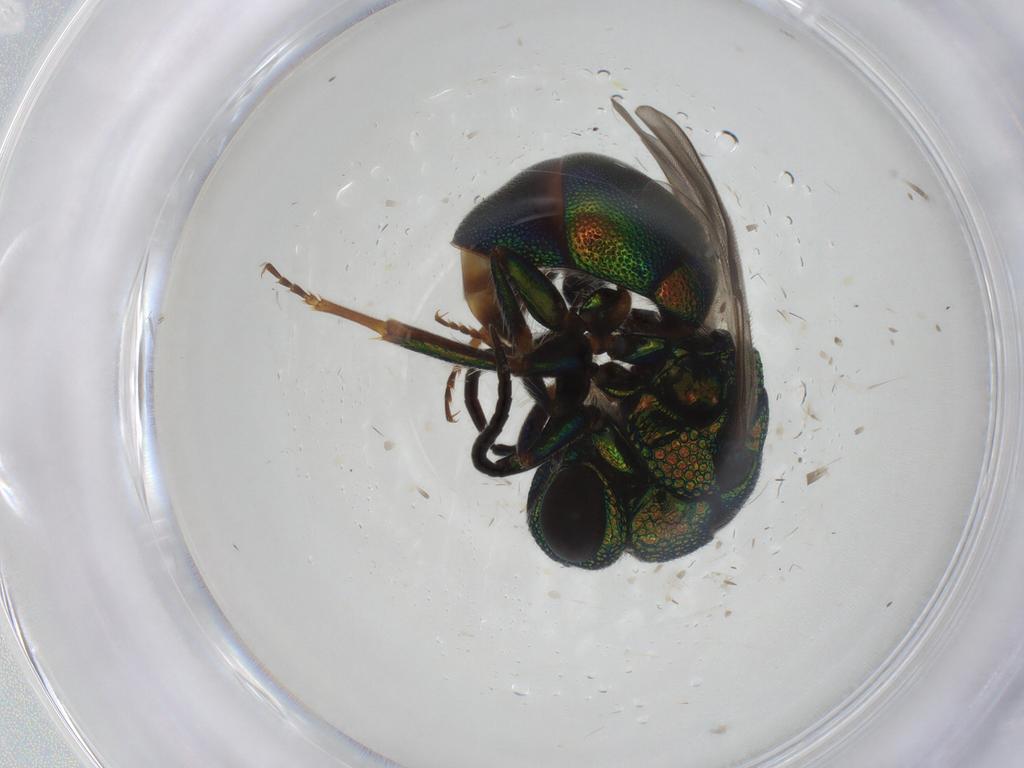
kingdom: Animalia
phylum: Arthropoda
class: Insecta
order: Hymenoptera
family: Chrysididae
